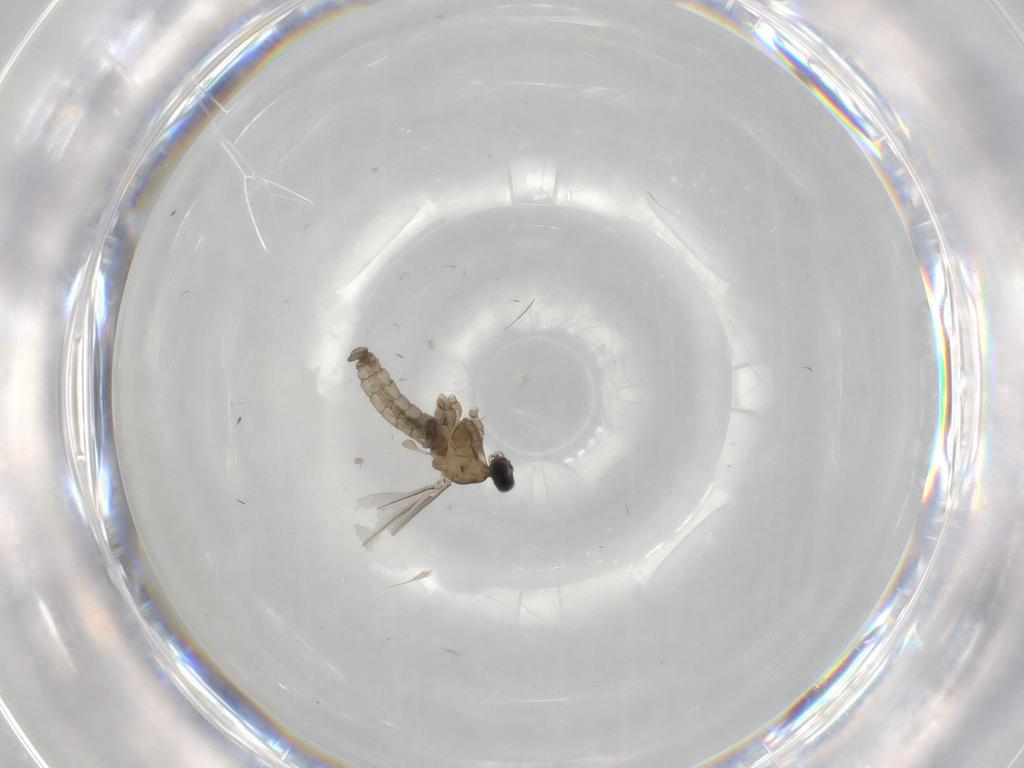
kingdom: Animalia
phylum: Arthropoda
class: Insecta
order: Diptera
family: Cecidomyiidae
